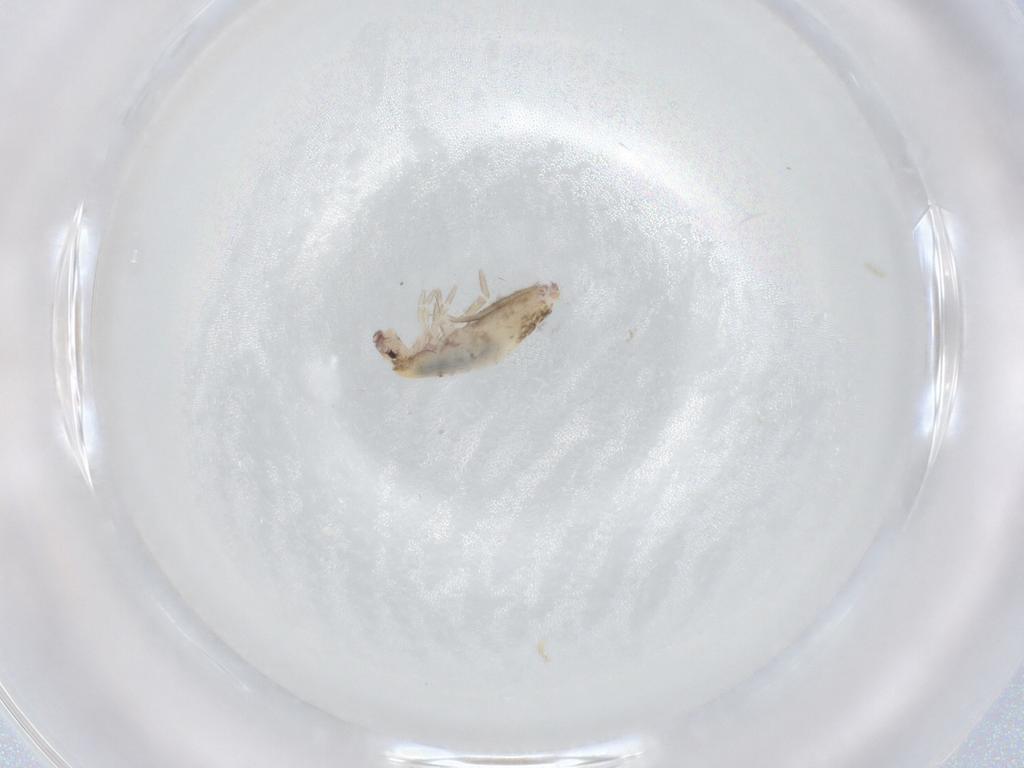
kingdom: Animalia
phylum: Arthropoda
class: Collembola
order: Entomobryomorpha
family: Entomobryidae
